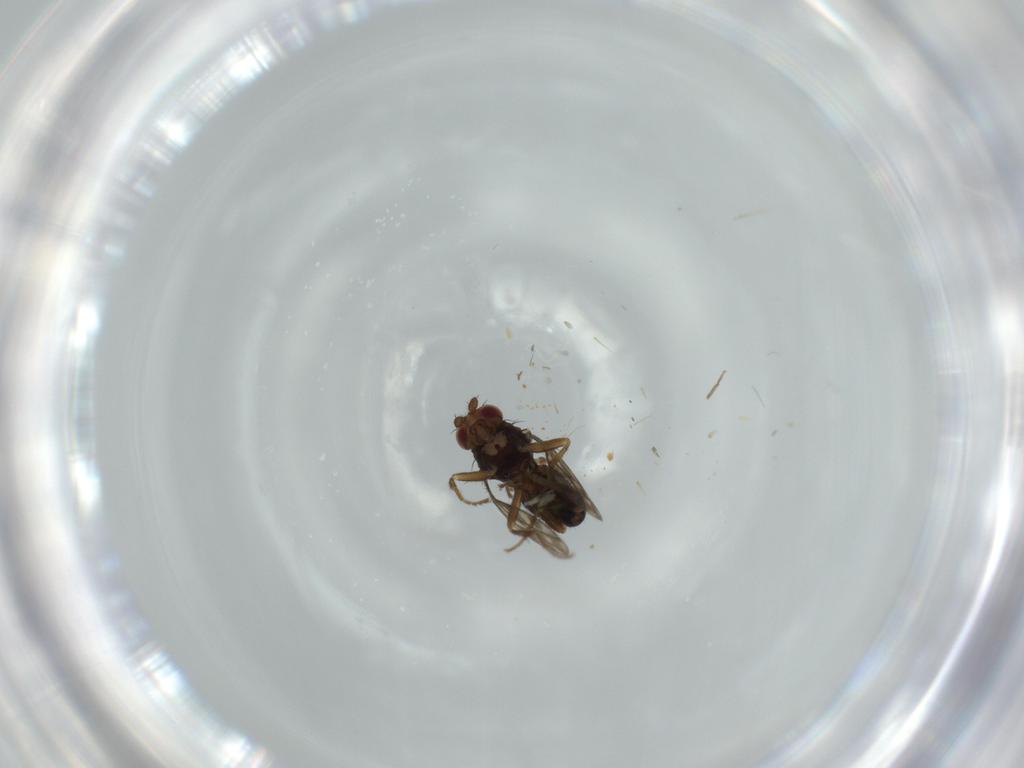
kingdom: Animalia
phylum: Arthropoda
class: Insecta
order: Diptera
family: Sphaeroceridae
